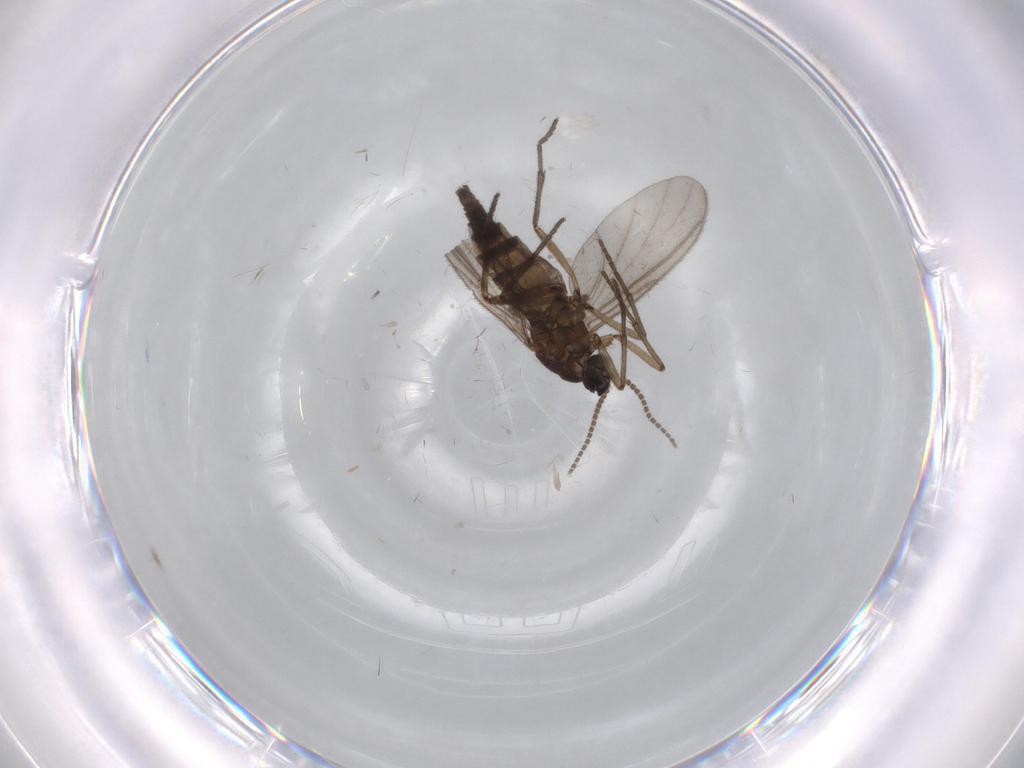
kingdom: Animalia
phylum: Arthropoda
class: Insecta
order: Diptera
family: Sciaridae
